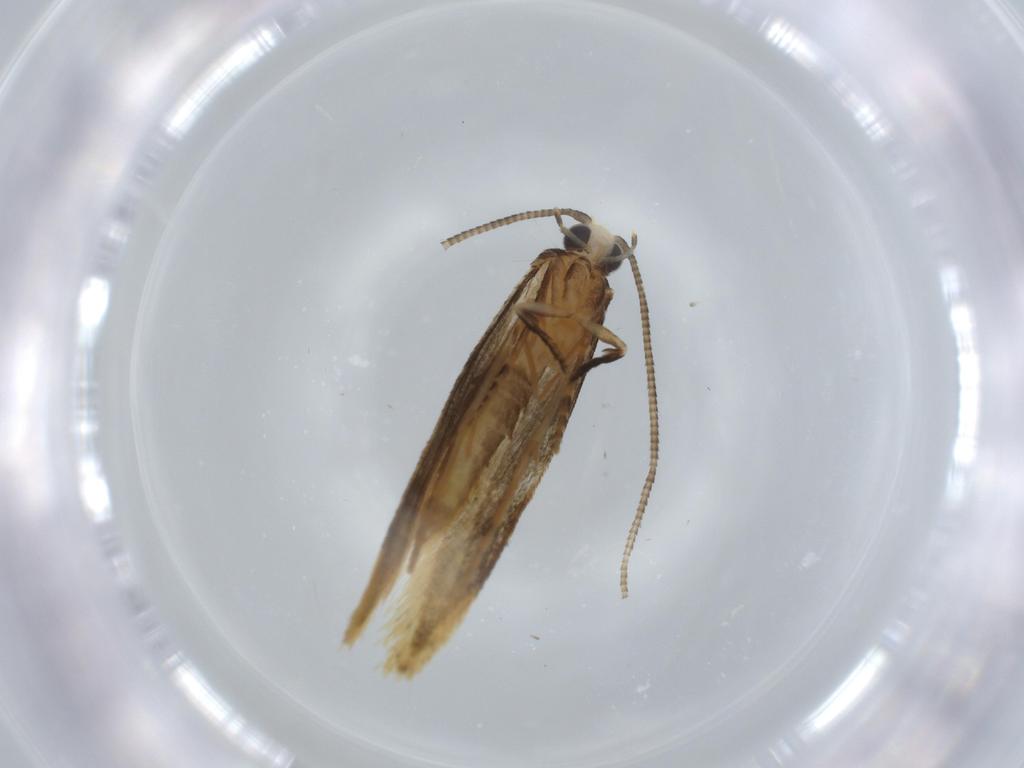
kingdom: Animalia
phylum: Arthropoda
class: Insecta
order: Lepidoptera
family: Tineidae
